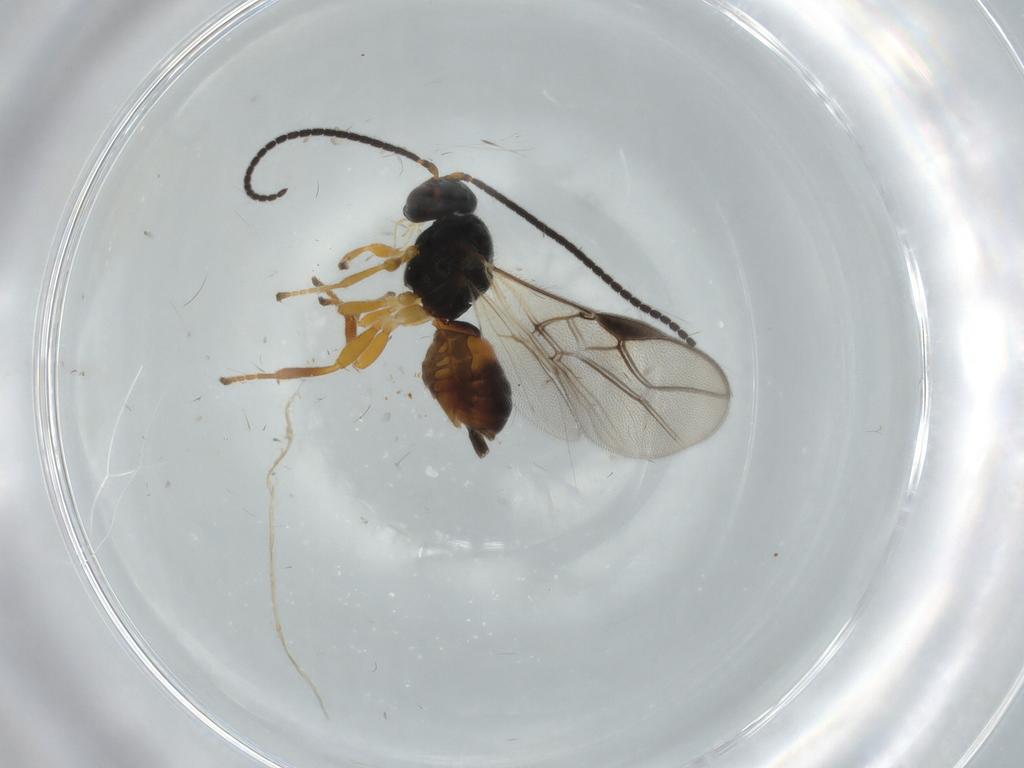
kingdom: Animalia
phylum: Arthropoda
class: Insecta
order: Hymenoptera
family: Braconidae
